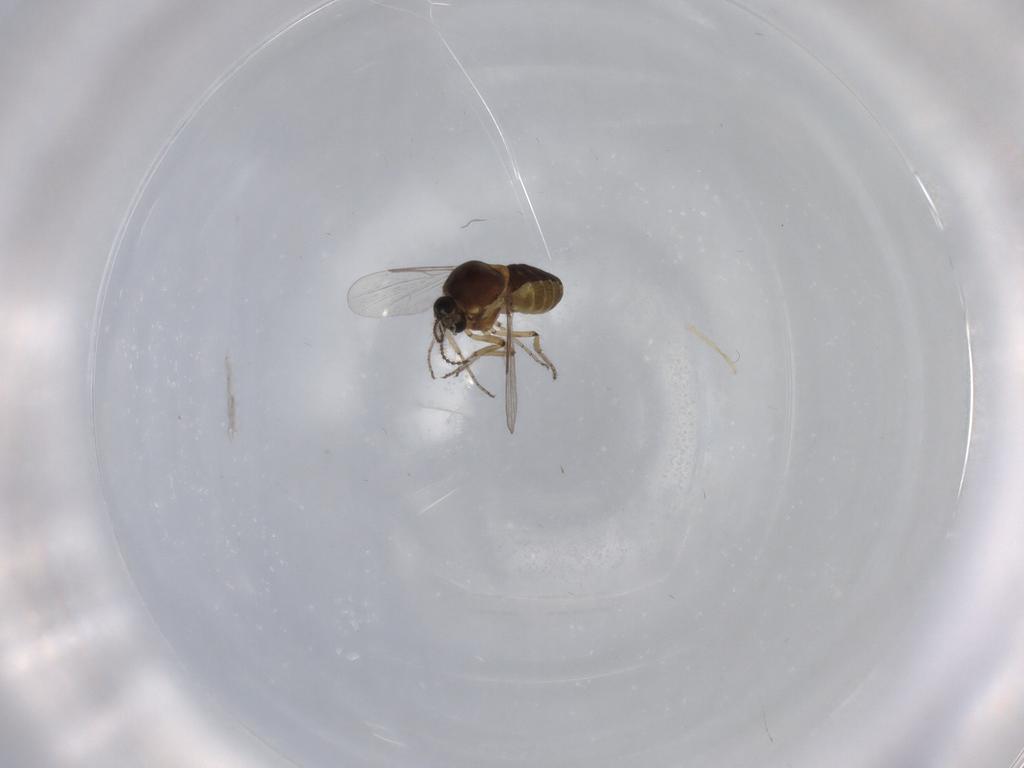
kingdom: Animalia
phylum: Arthropoda
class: Insecta
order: Diptera
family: Ceratopogonidae
